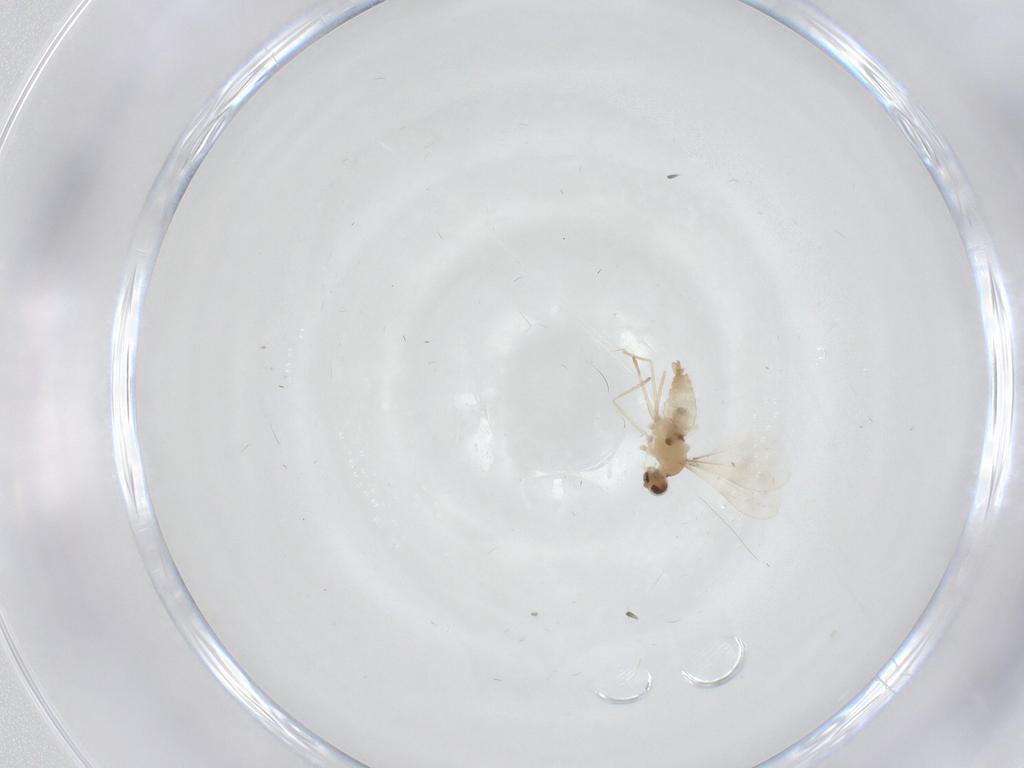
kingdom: Animalia
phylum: Arthropoda
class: Insecta
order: Diptera
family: Cecidomyiidae
